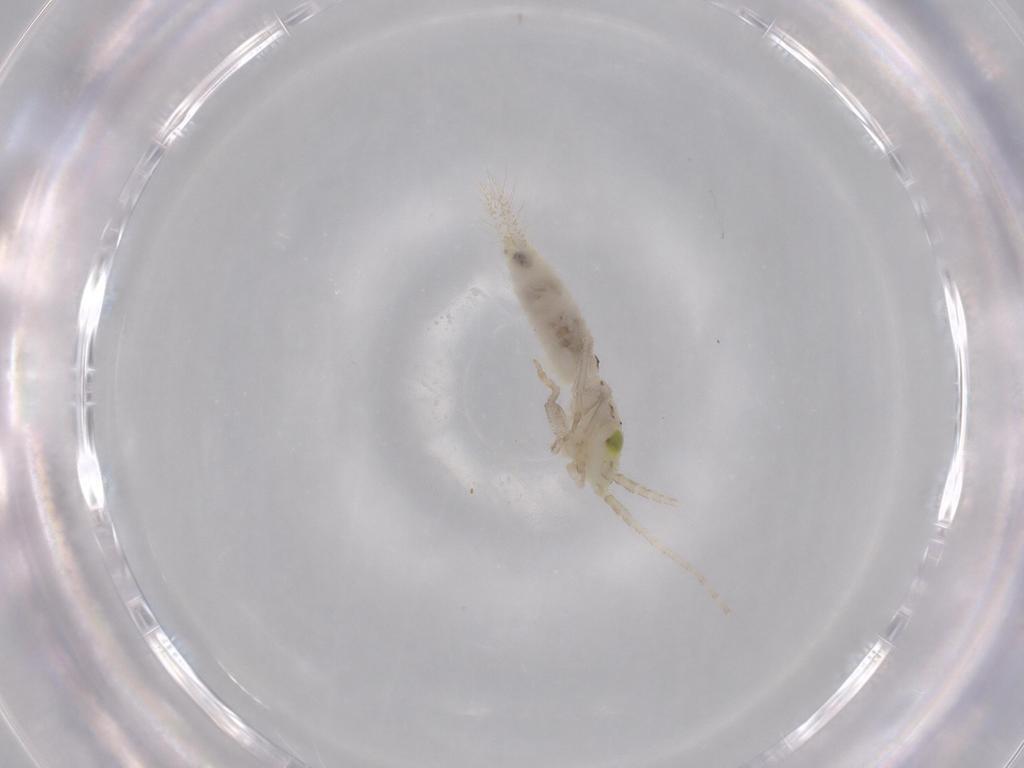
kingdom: Animalia
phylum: Arthropoda
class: Insecta
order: Orthoptera
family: Trigonidiidae
